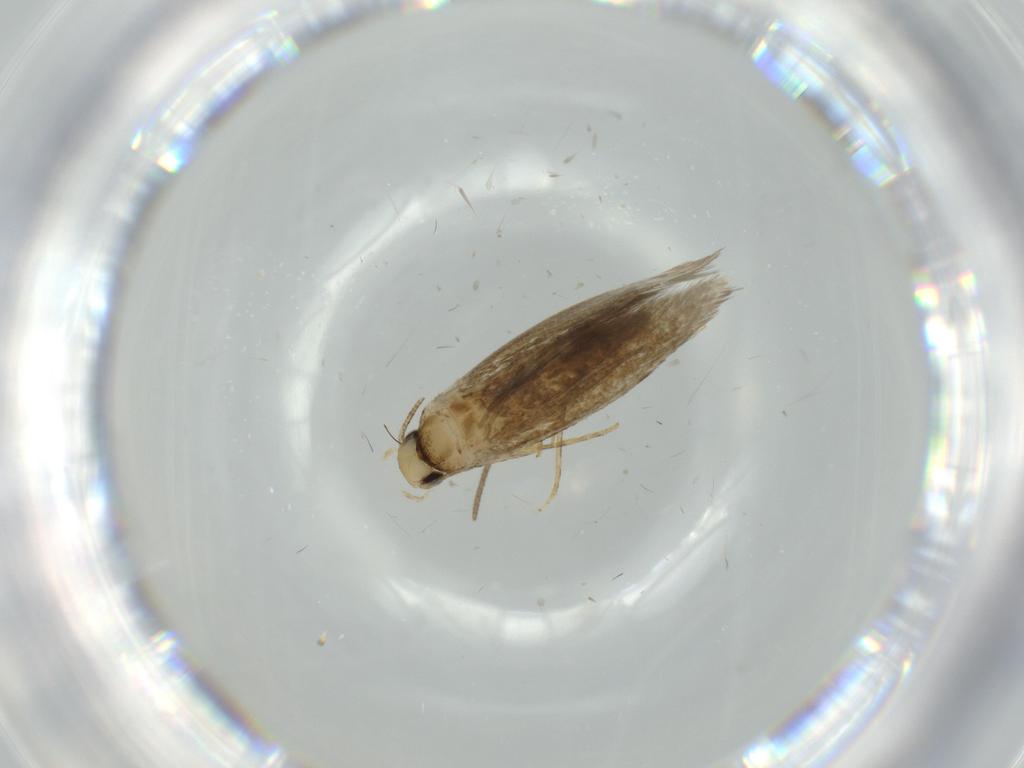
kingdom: Animalia
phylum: Arthropoda
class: Insecta
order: Lepidoptera
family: Tineidae
